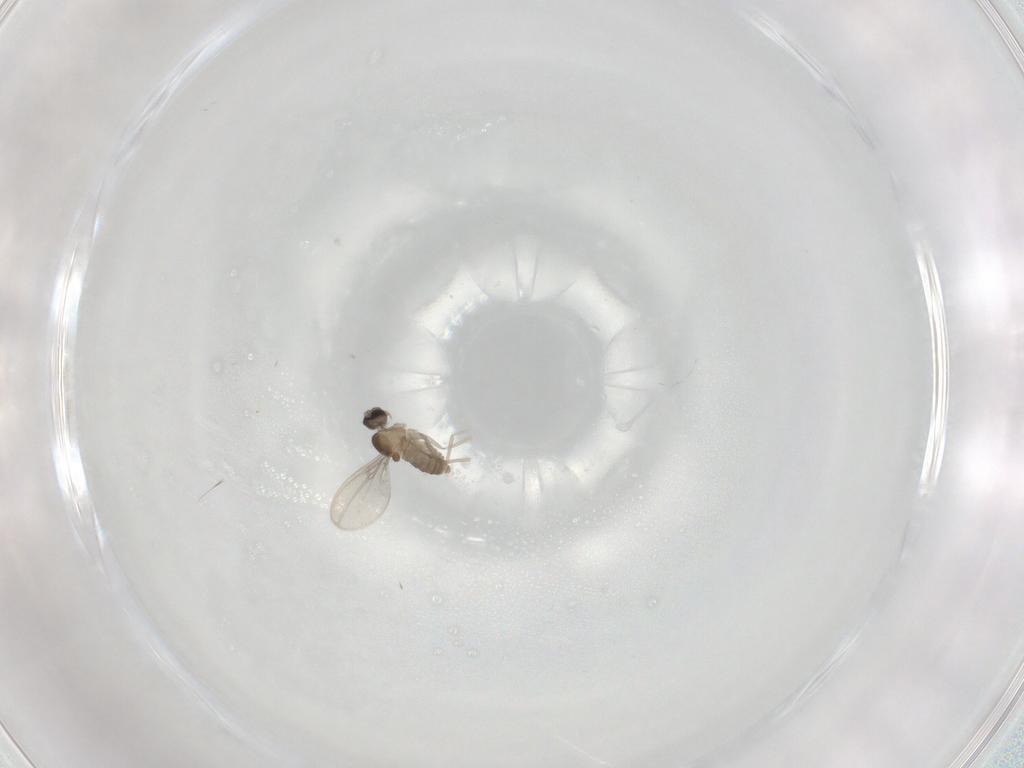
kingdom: Animalia
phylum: Arthropoda
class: Insecta
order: Diptera
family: Cecidomyiidae
